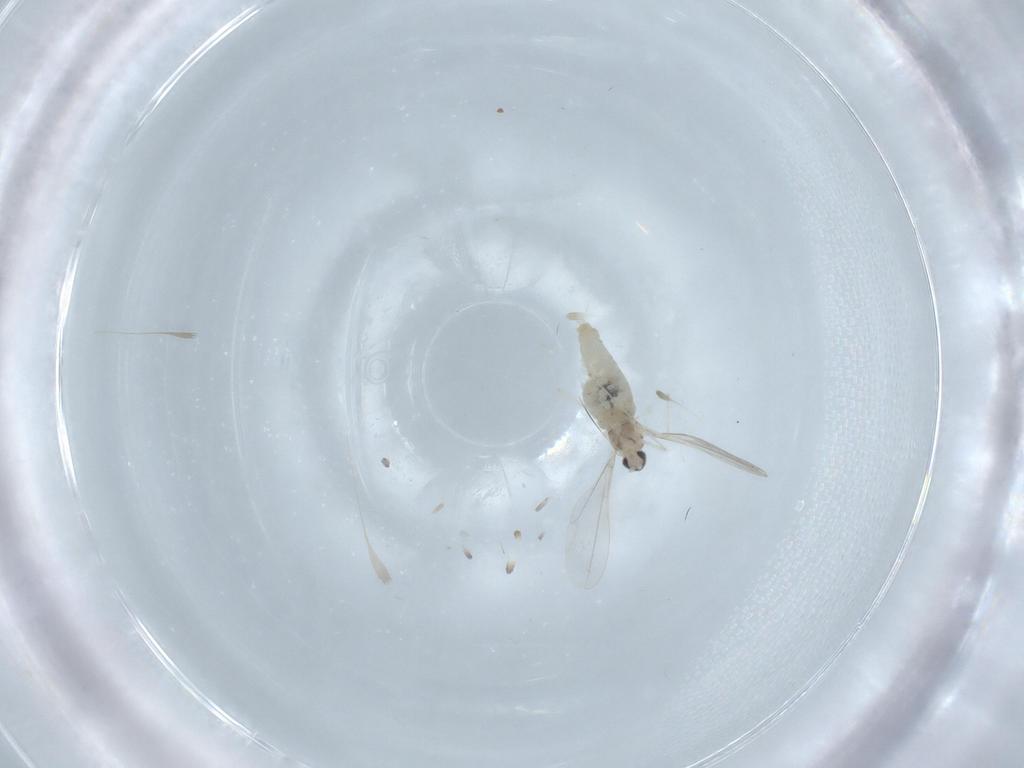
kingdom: Animalia
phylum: Arthropoda
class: Insecta
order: Diptera
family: Cecidomyiidae
